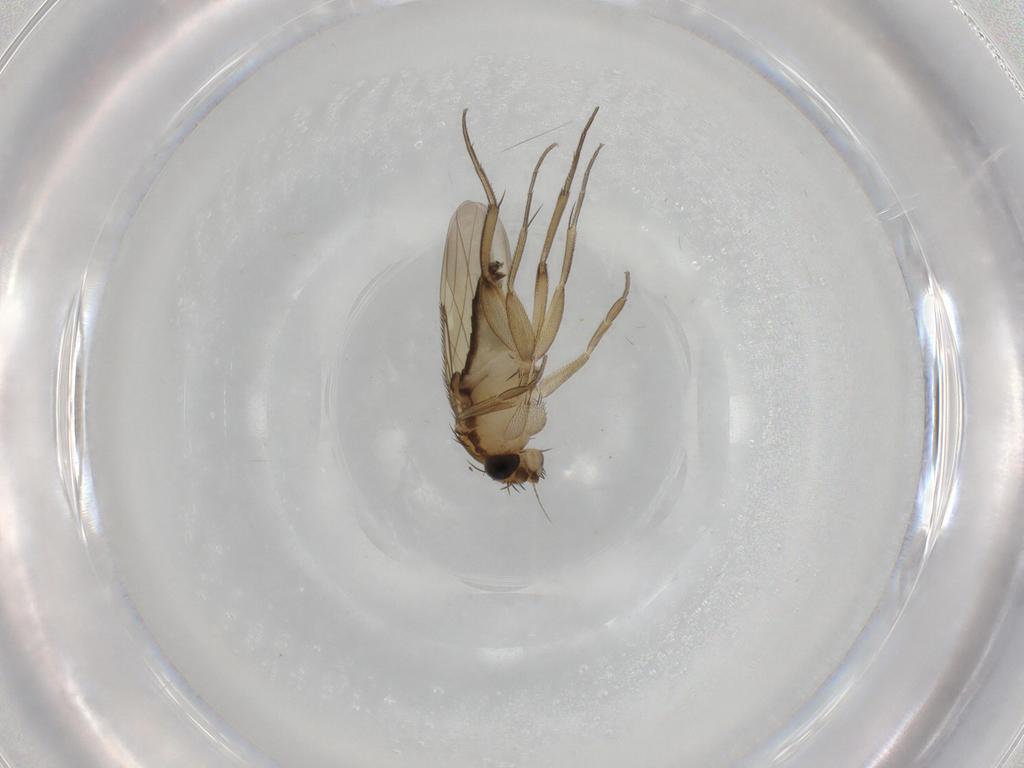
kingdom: Animalia
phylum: Arthropoda
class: Insecta
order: Diptera
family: Phoridae
